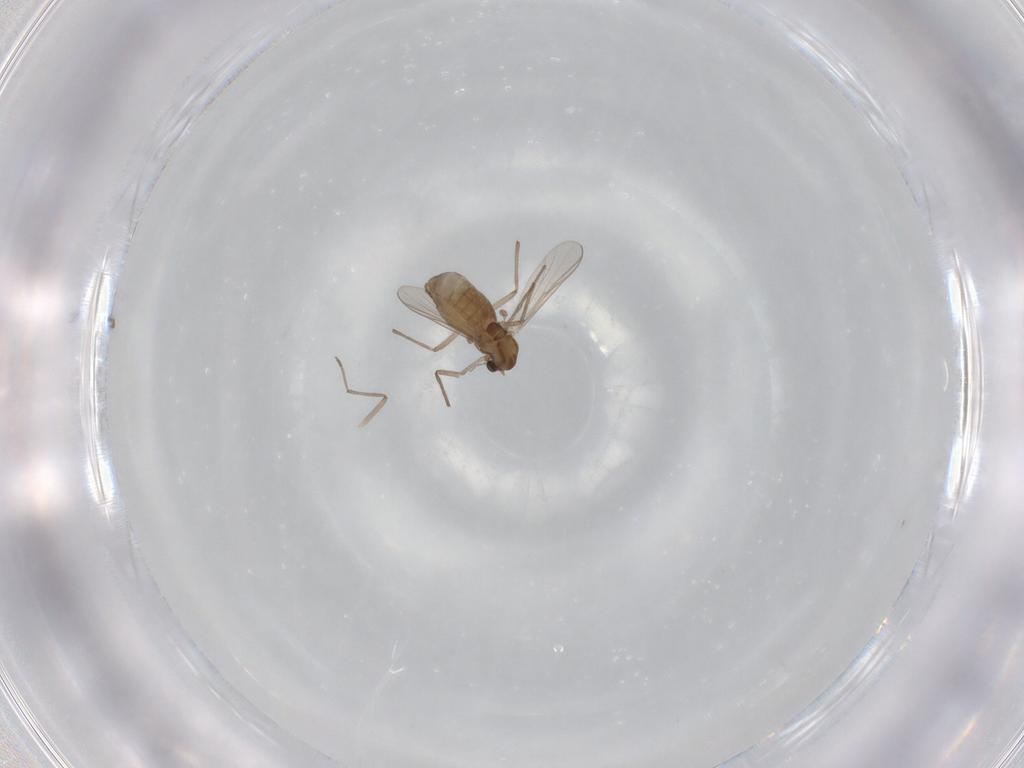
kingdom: Animalia
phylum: Arthropoda
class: Insecta
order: Diptera
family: Chironomidae
